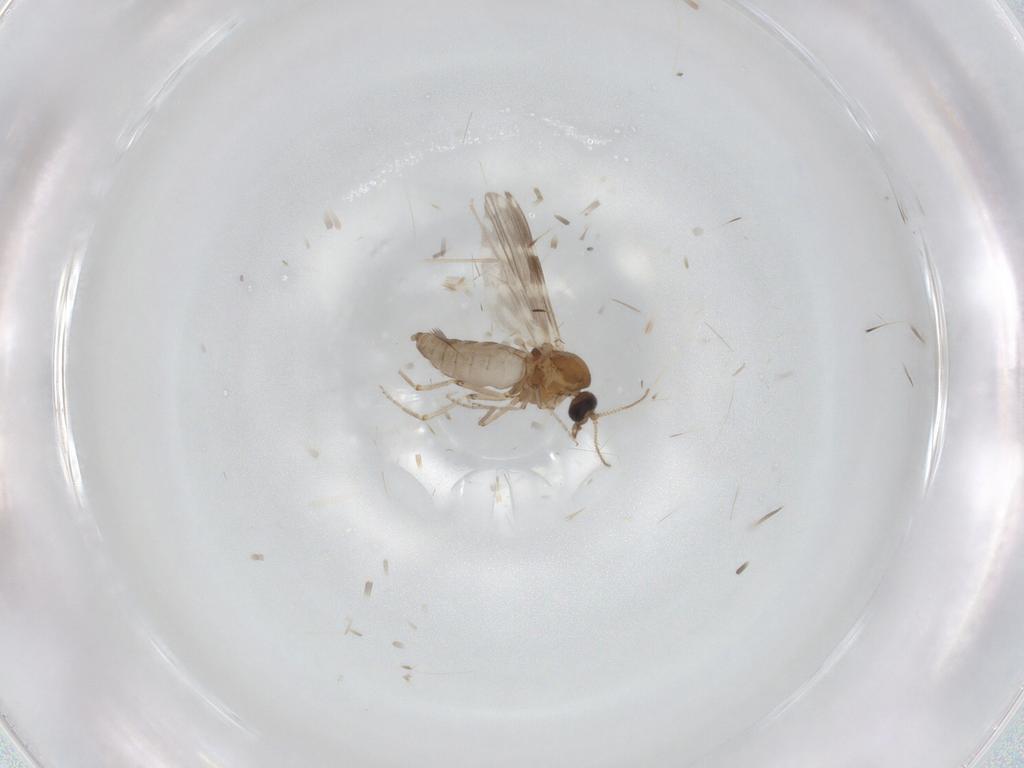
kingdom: Animalia
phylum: Arthropoda
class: Insecta
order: Diptera
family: Ceratopogonidae
